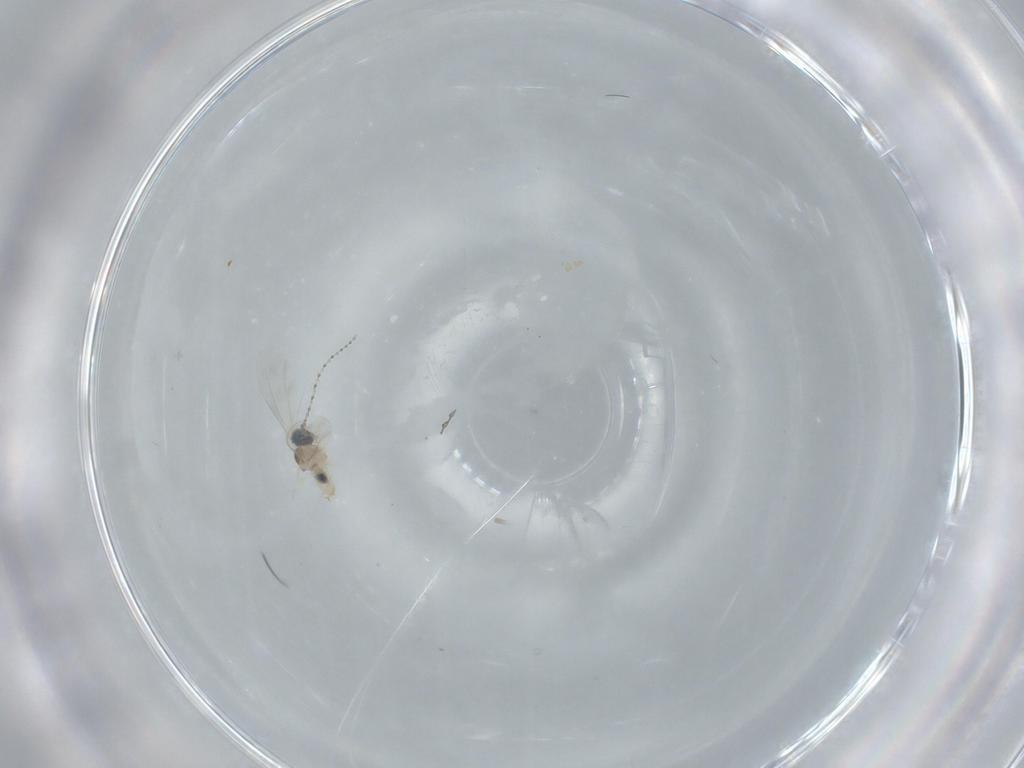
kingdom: Animalia
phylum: Arthropoda
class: Insecta
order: Diptera
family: Cecidomyiidae
